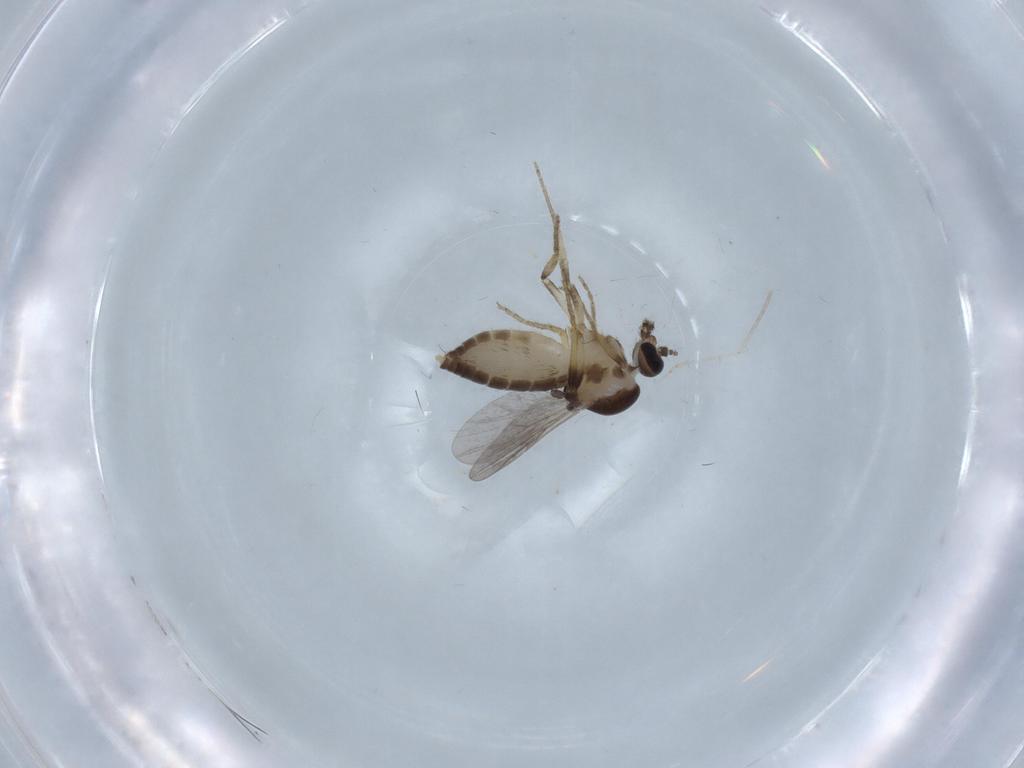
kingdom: Animalia
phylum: Arthropoda
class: Insecta
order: Diptera
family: Ceratopogonidae
